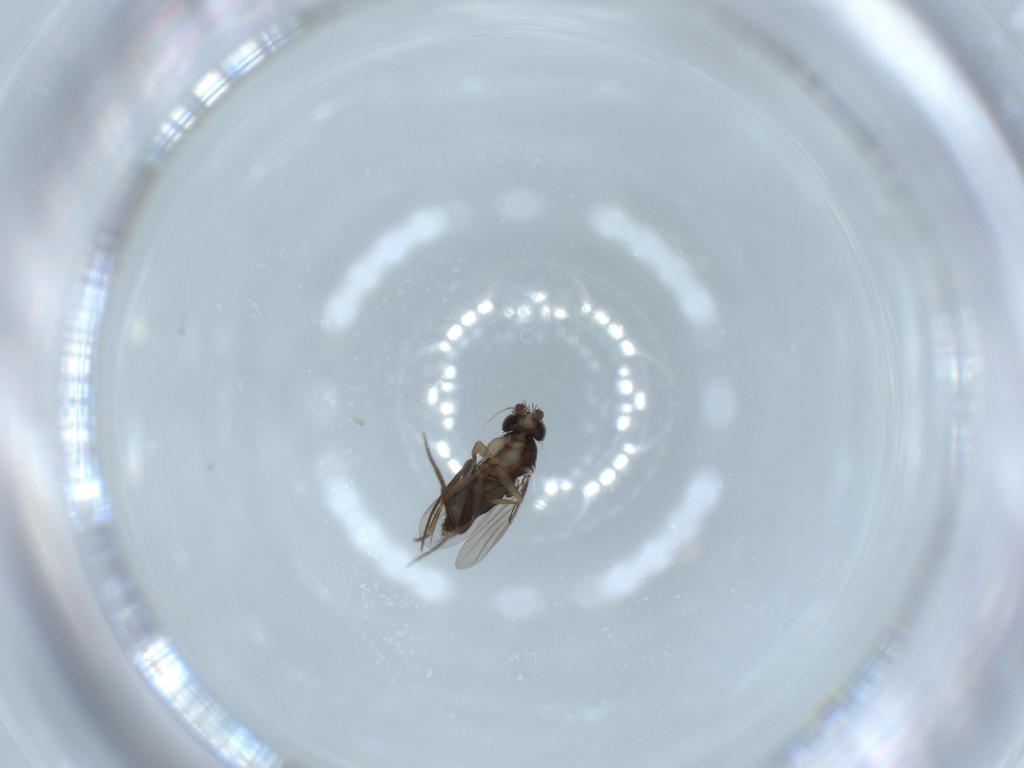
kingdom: Animalia
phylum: Arthropoda
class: Insecta
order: Diptera
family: Phoridae
